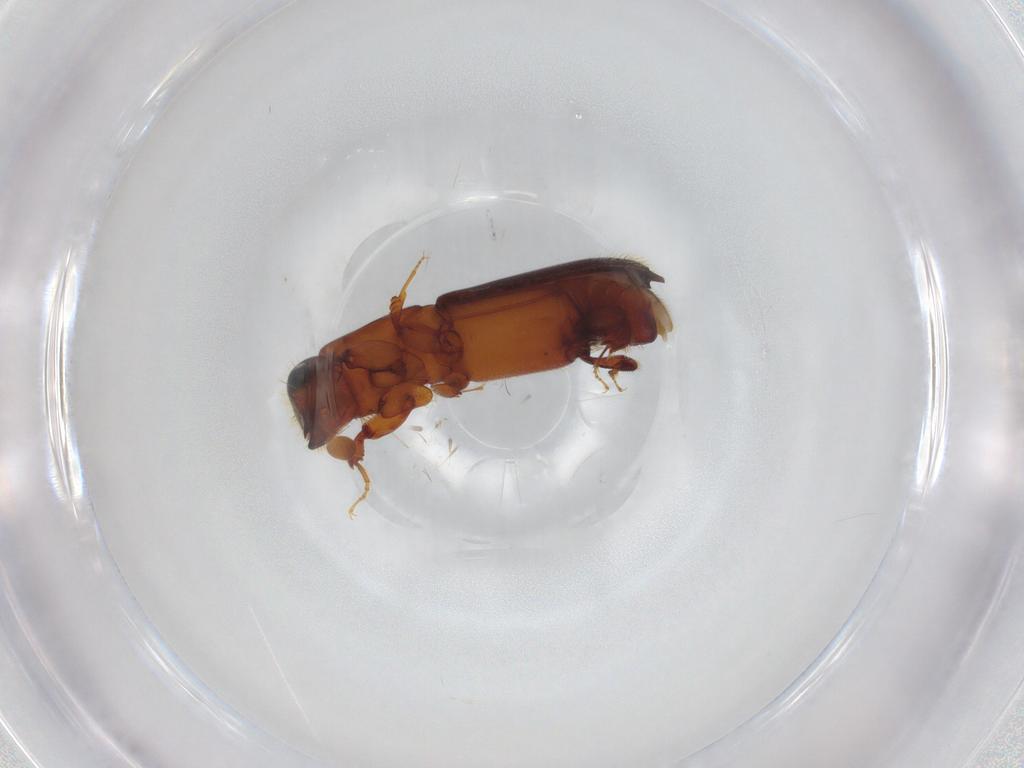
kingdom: Animalia
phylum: Arthropoda
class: Insecta
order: Coleoptera
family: Curculionidae
